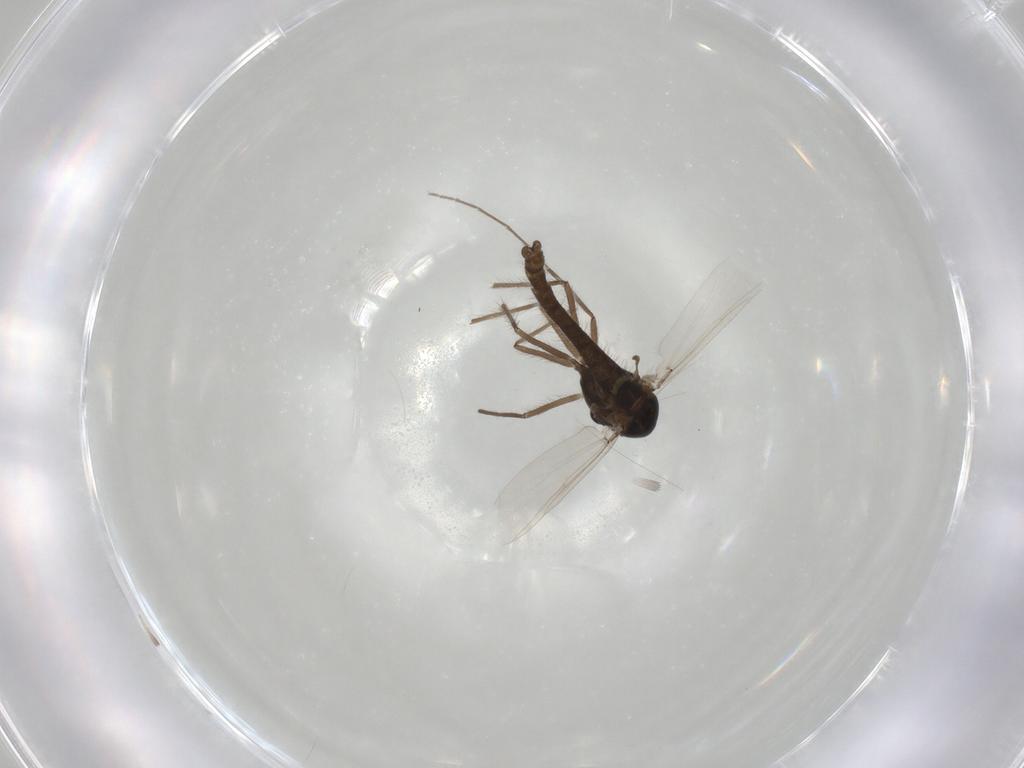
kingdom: Animalia
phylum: Arthropoda
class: Insecta
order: Diptera
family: Chironomidae
